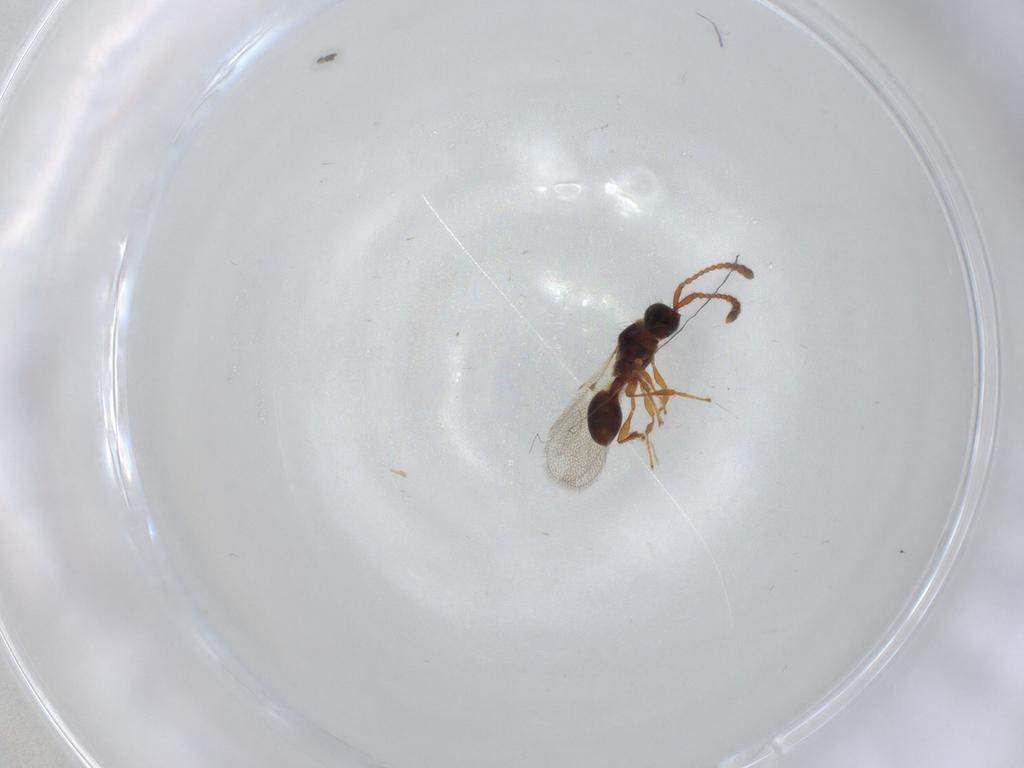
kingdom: Animalia
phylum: Arthropoda
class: Insecta
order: Hymenoptera
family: Diapriidae
